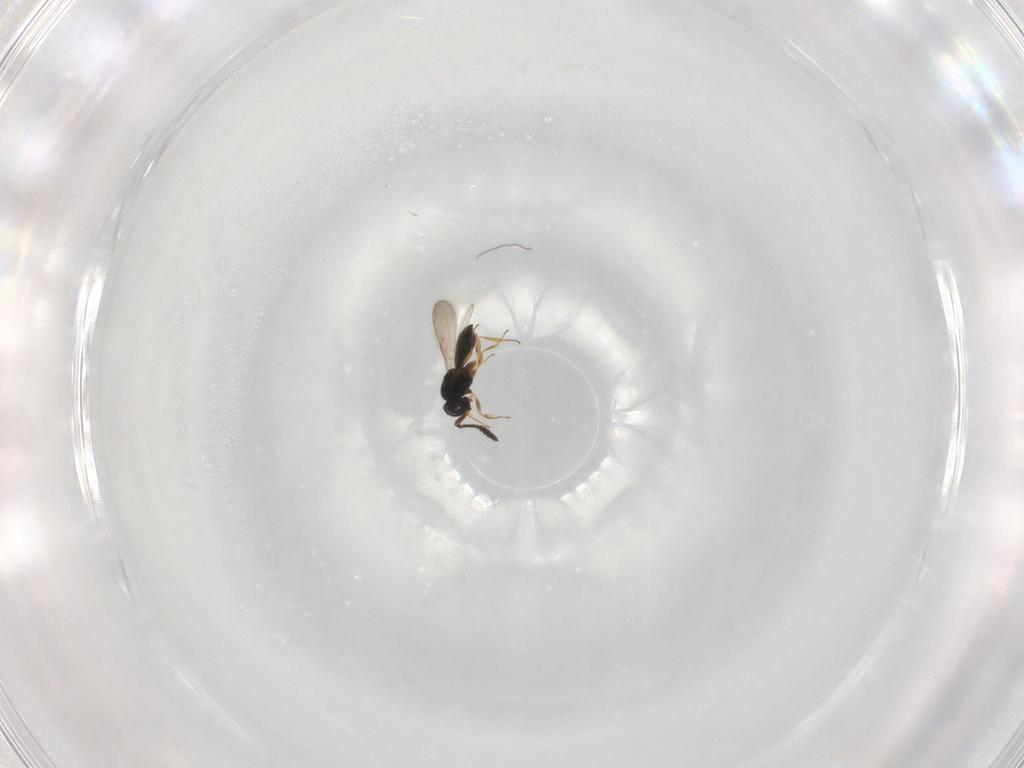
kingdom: Animalia
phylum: Arthropoda
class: Insecta
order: Hymenoptera
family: Scelionidae
